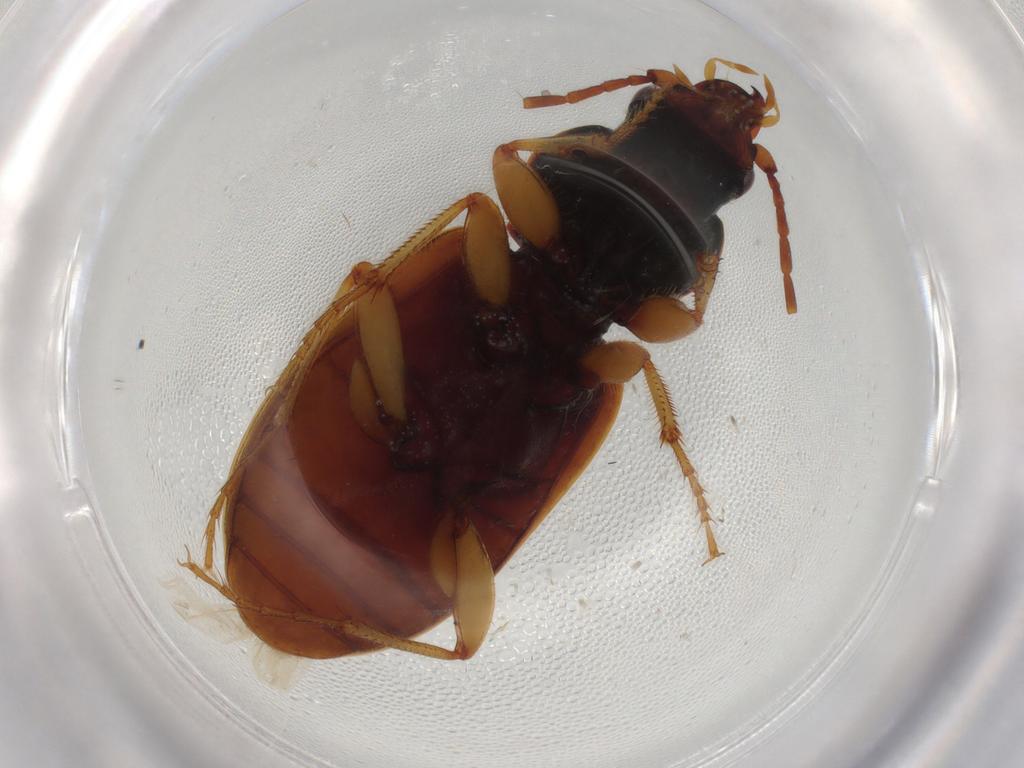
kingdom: Animalia
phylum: Arthropoda
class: Insecta
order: Coleoptera
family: Carabidae
